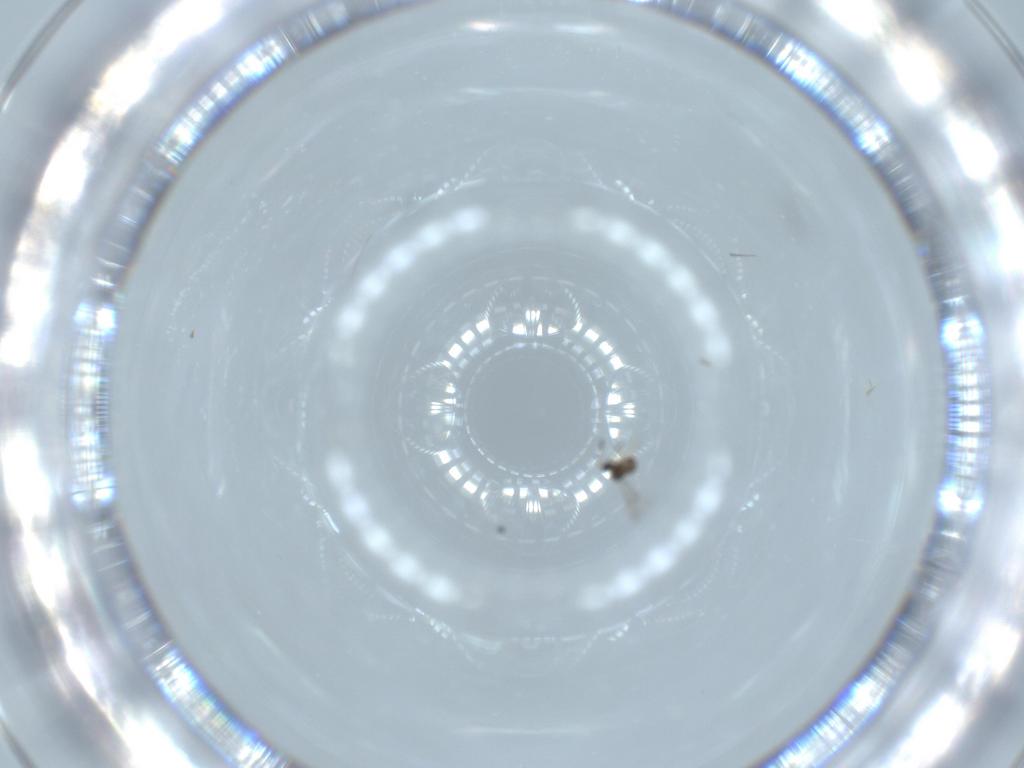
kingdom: Animalia
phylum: Arthropoda
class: Insecta
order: Hymenoptera
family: Mymaridae
